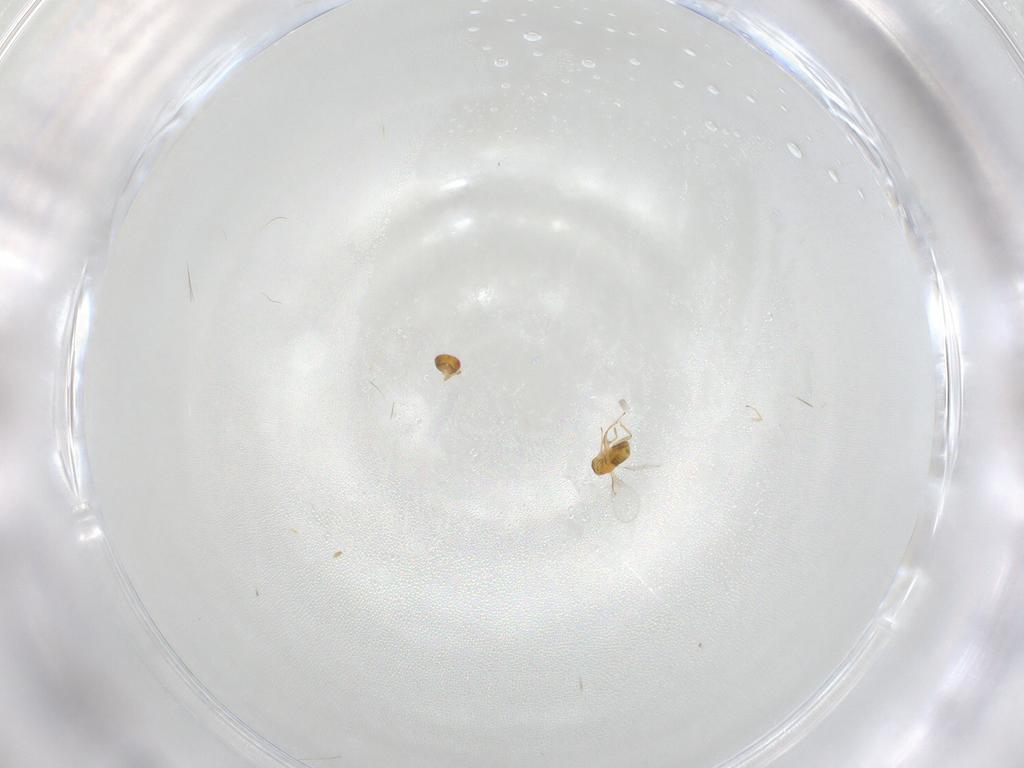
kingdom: Animalia
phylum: Arthropoda
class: Insecta
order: Hymenoptera
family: Trichogrammatidae
